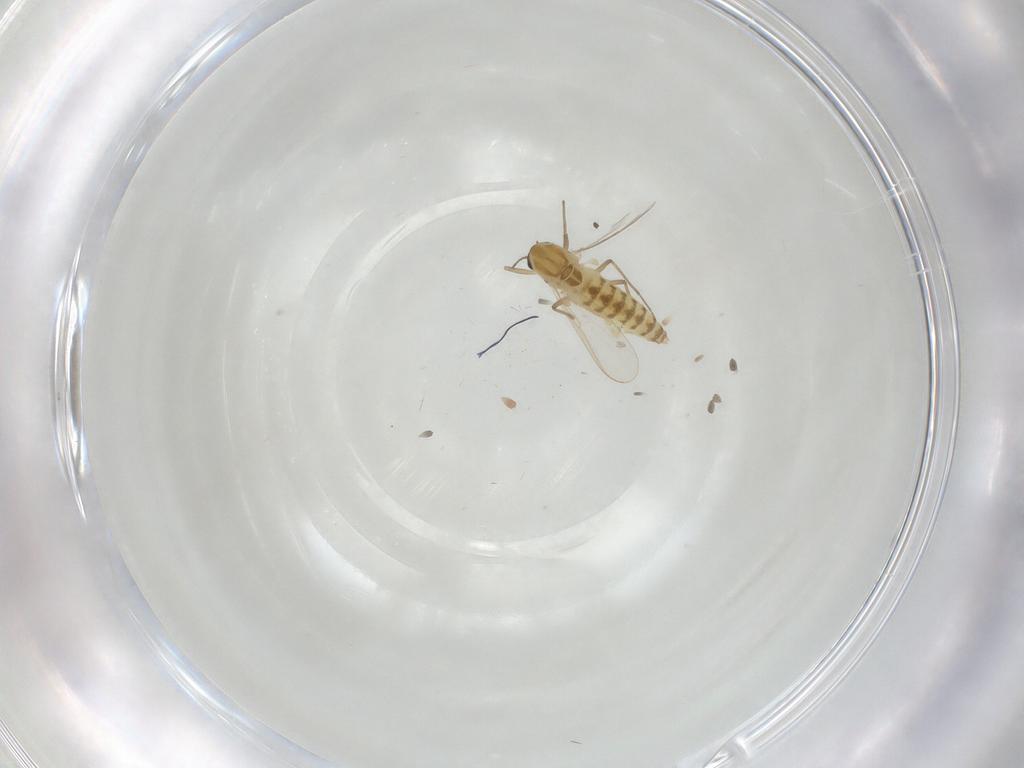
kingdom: Animalia
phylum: Arthropoda
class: Insecta
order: Diptera
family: Chironomidae
